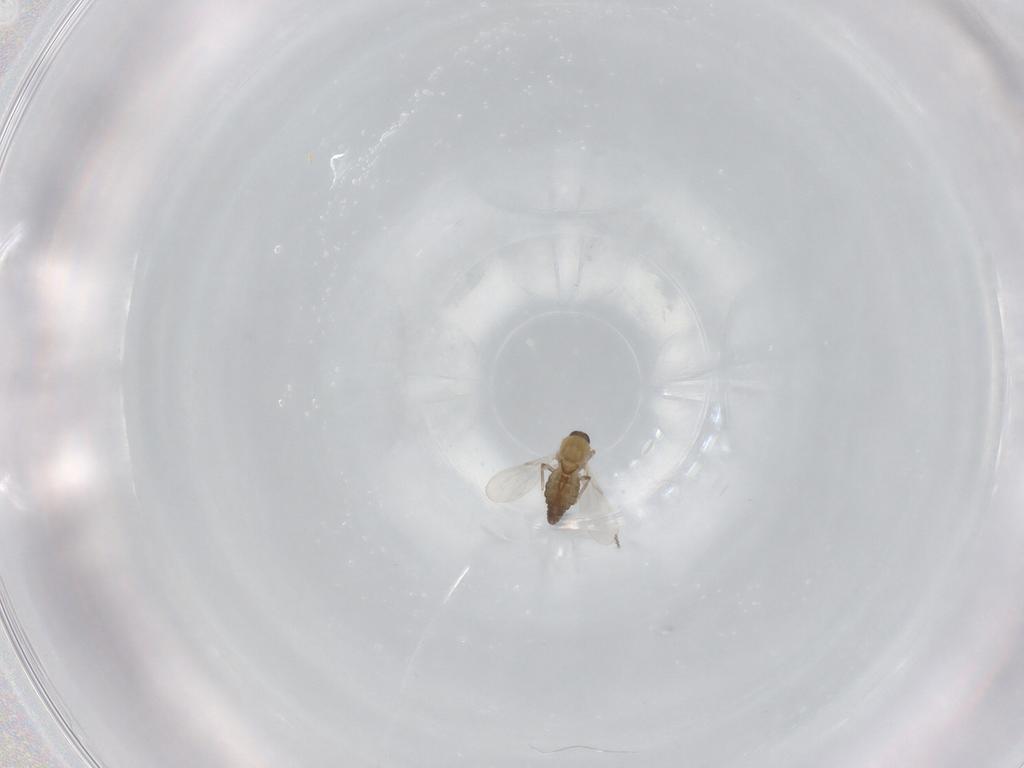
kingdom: Animalia
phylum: Arthropoda
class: Insecta
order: Diptera
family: Ceratopogonidae
